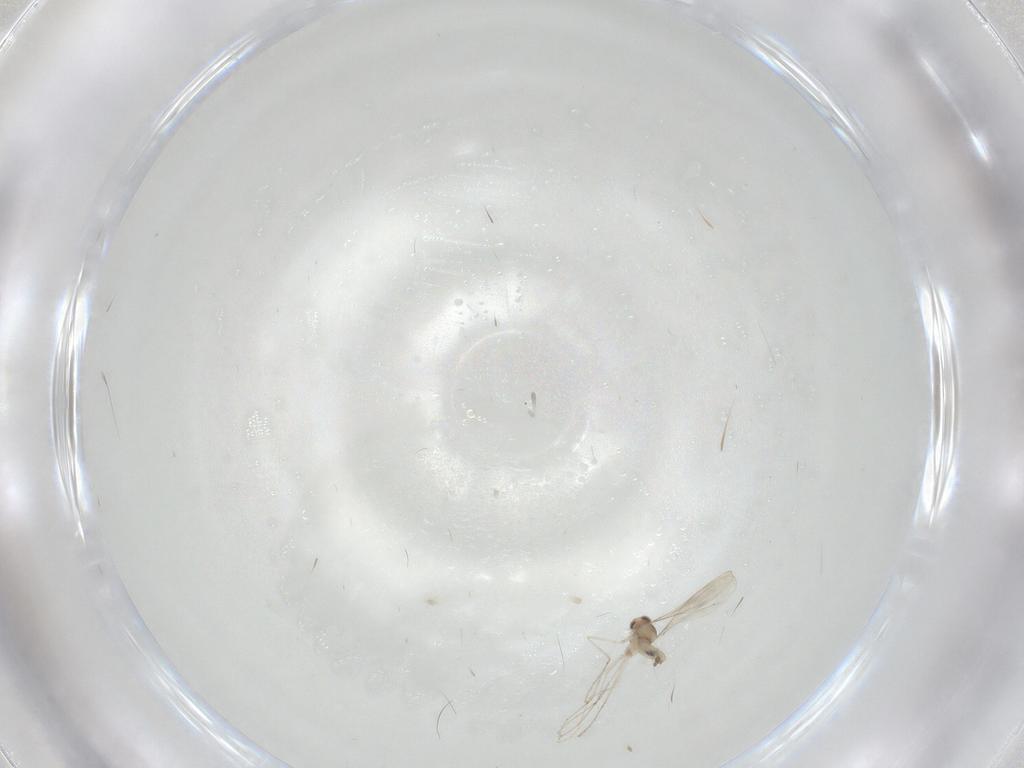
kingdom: Animalia
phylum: Arthropoda
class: Insecta
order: Diptera
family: Cecidomyiidae
